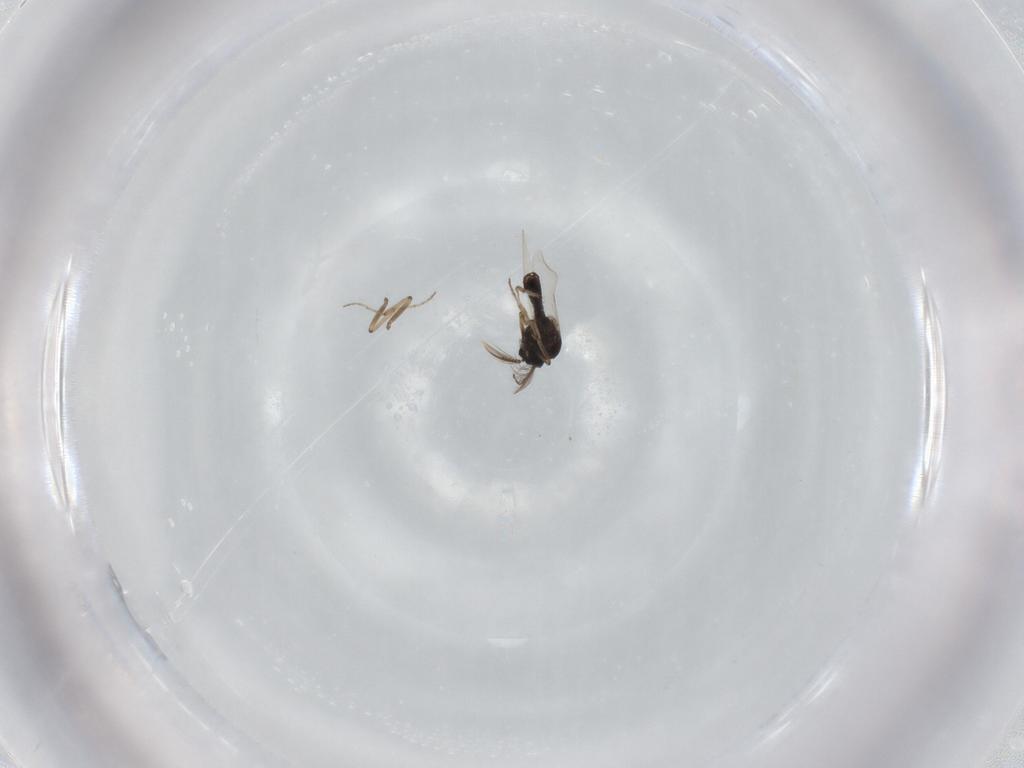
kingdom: Animalia
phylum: Arthropoda
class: Insecta
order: Diptera
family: Ceratopogonidae
